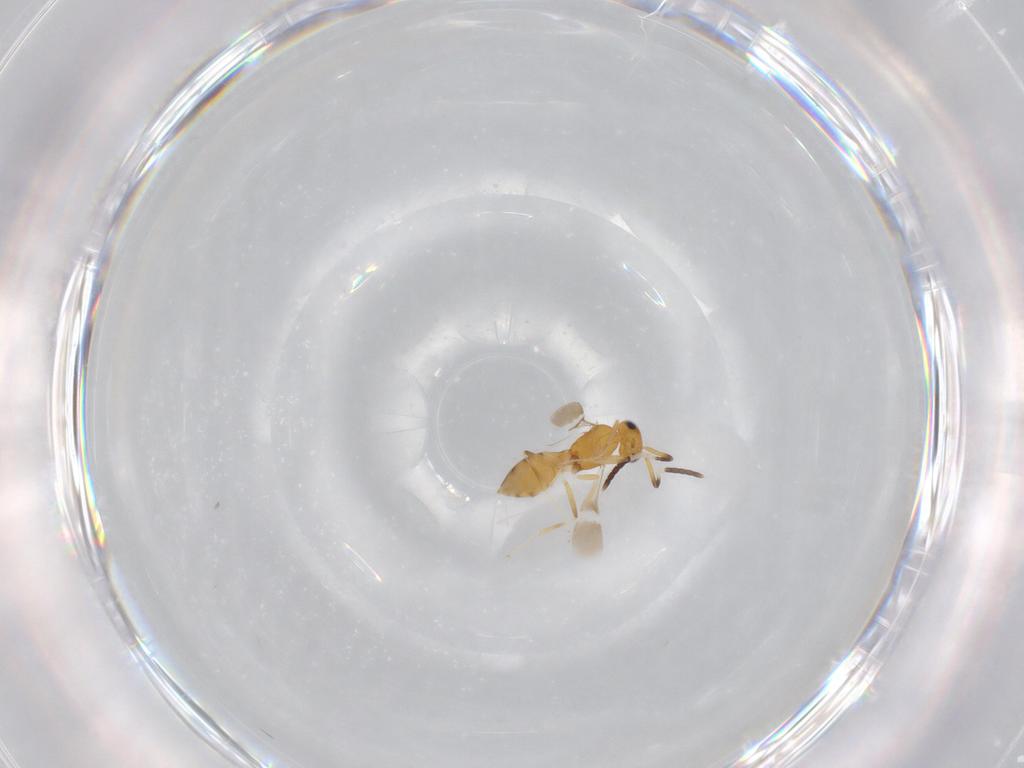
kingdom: Animalia
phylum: Arthropoda
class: Insecta
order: Hymenoptera
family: Scelionidae
